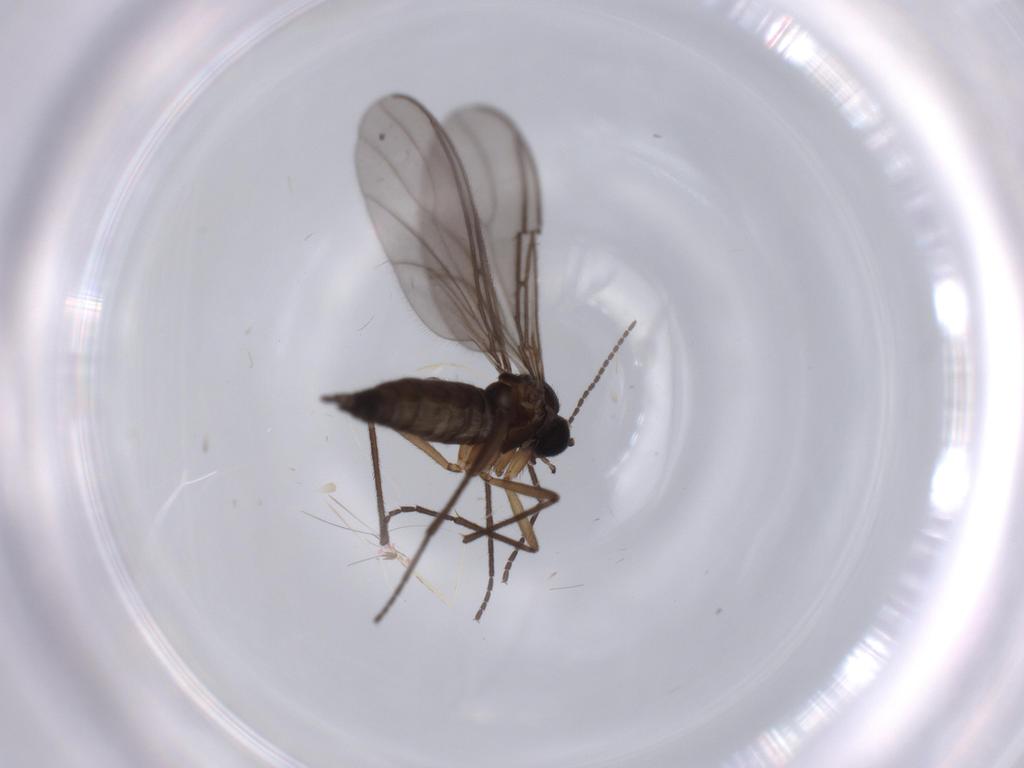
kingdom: Animalia
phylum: Arthropoda
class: Insecta
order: Diptera
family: Cecidomyiidae
